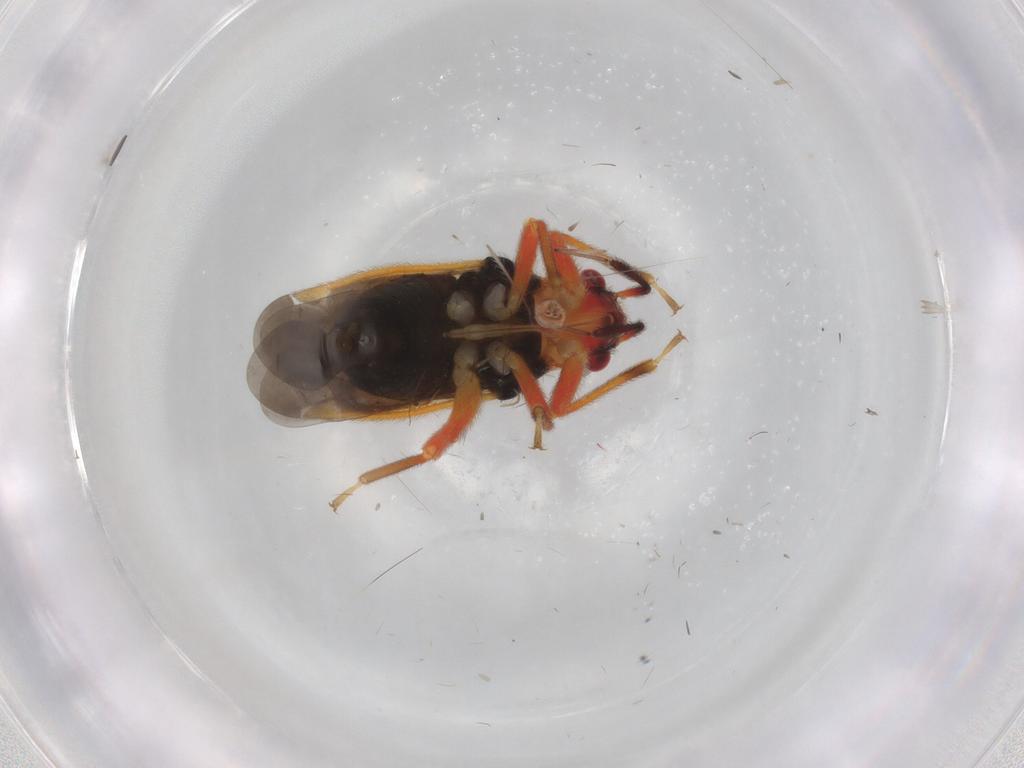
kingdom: Animalia
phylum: Arthropoda
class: Insecta
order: Hemiptera
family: Miridae
